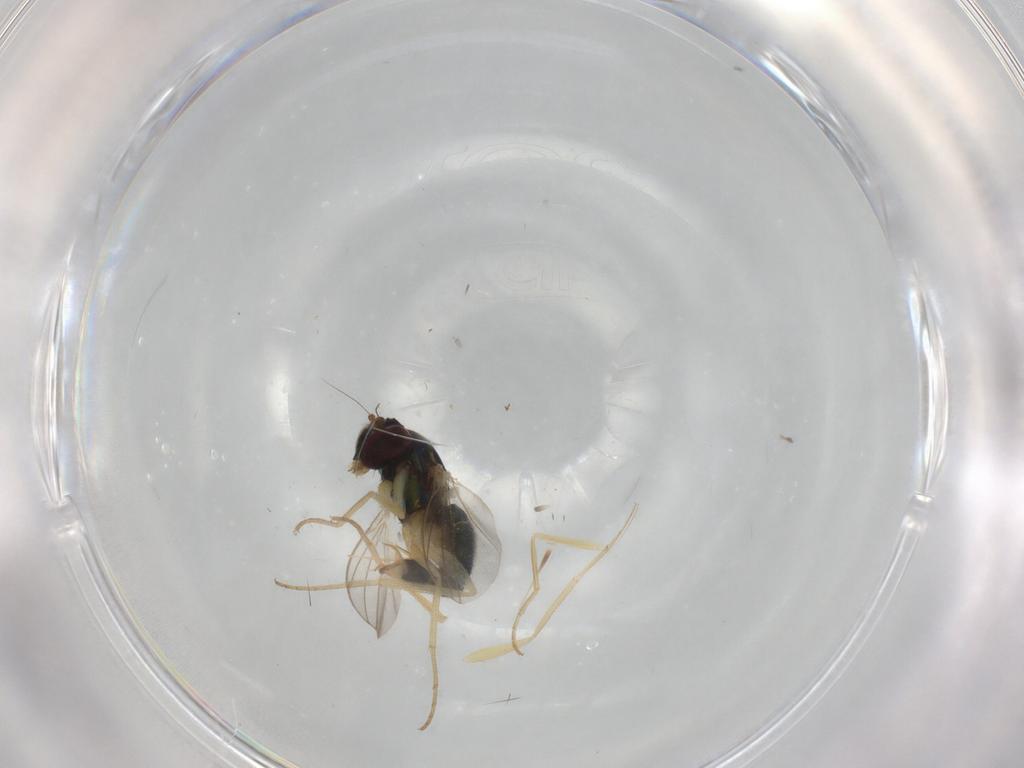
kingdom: Animalia
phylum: Arthropoda
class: Insecta
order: Diptera
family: Dolichopodidae
